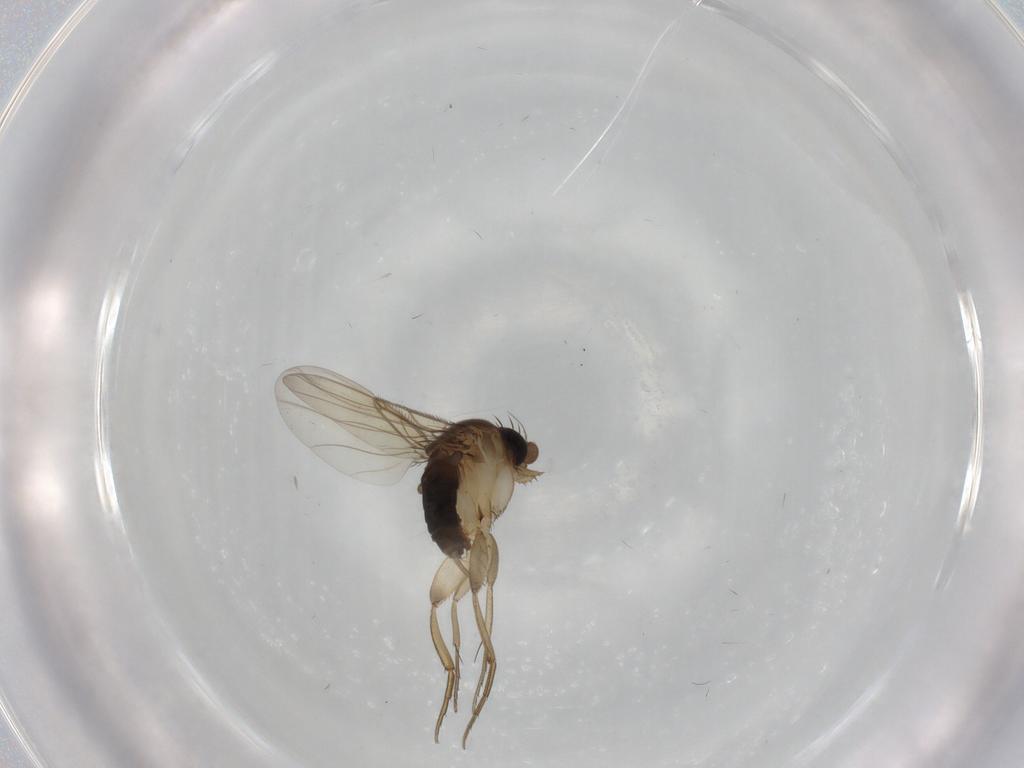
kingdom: Animalia
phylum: Arthropoda
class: Insecta
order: Diptera
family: Phoridae
